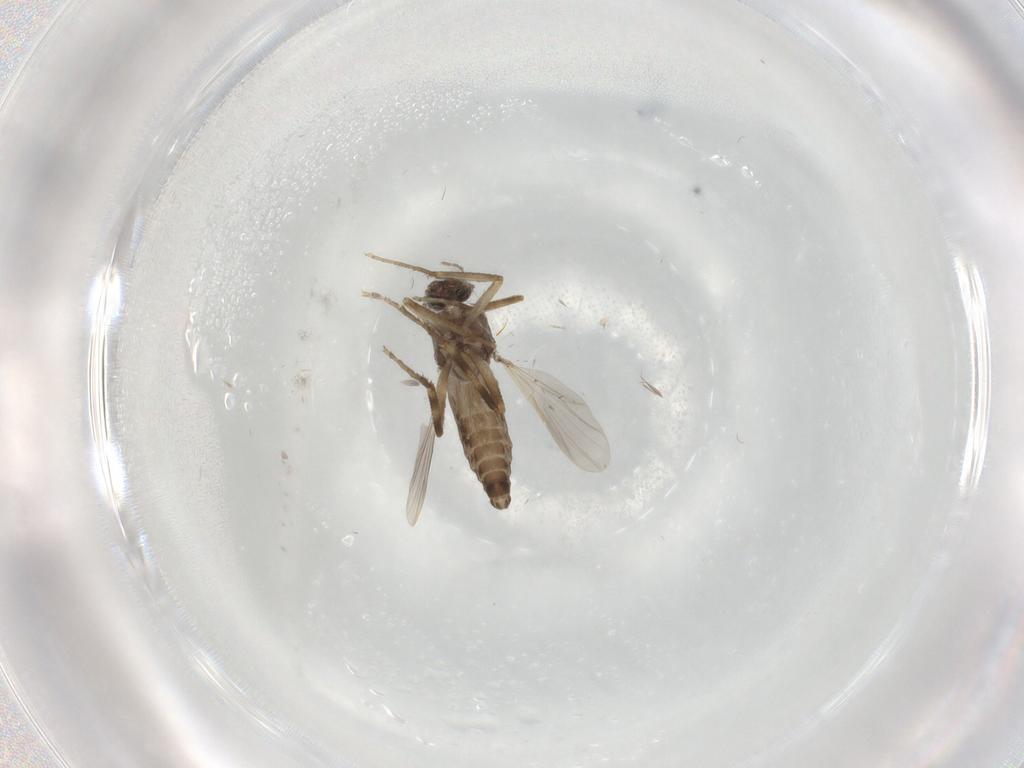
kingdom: Animalia
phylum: Arthropoda
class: Insecta
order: Diptera
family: Ceratopogonidae
